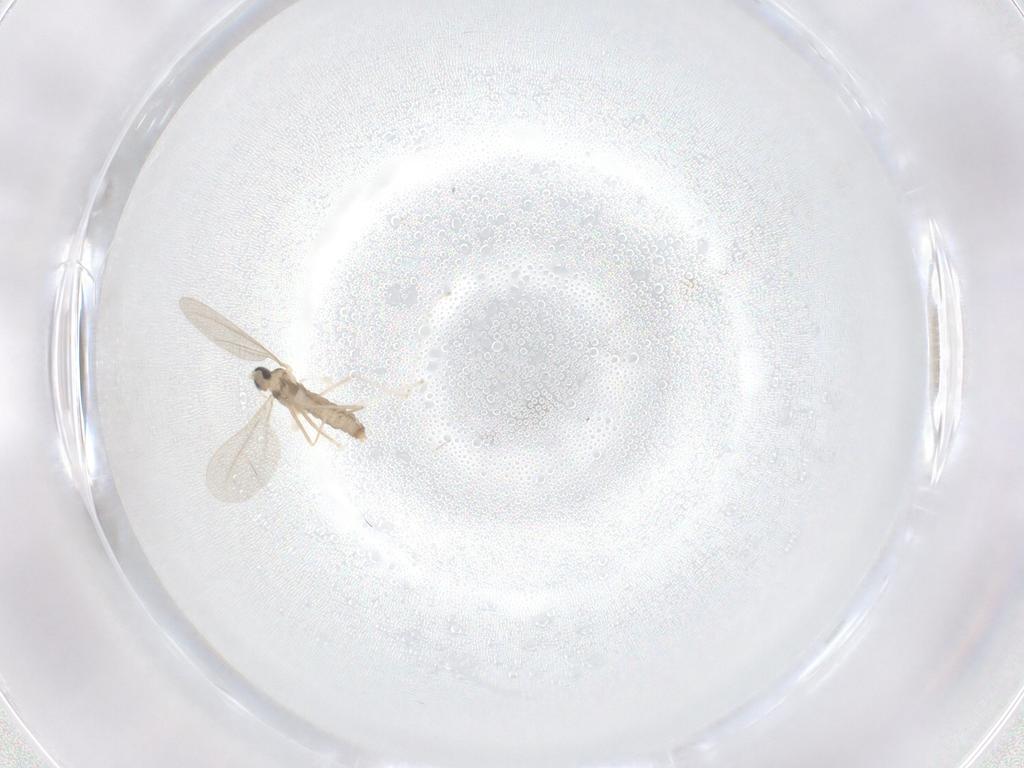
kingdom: Animalia
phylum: Arthropoda
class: Insecta
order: Diptera
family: Cecidomyiidae
